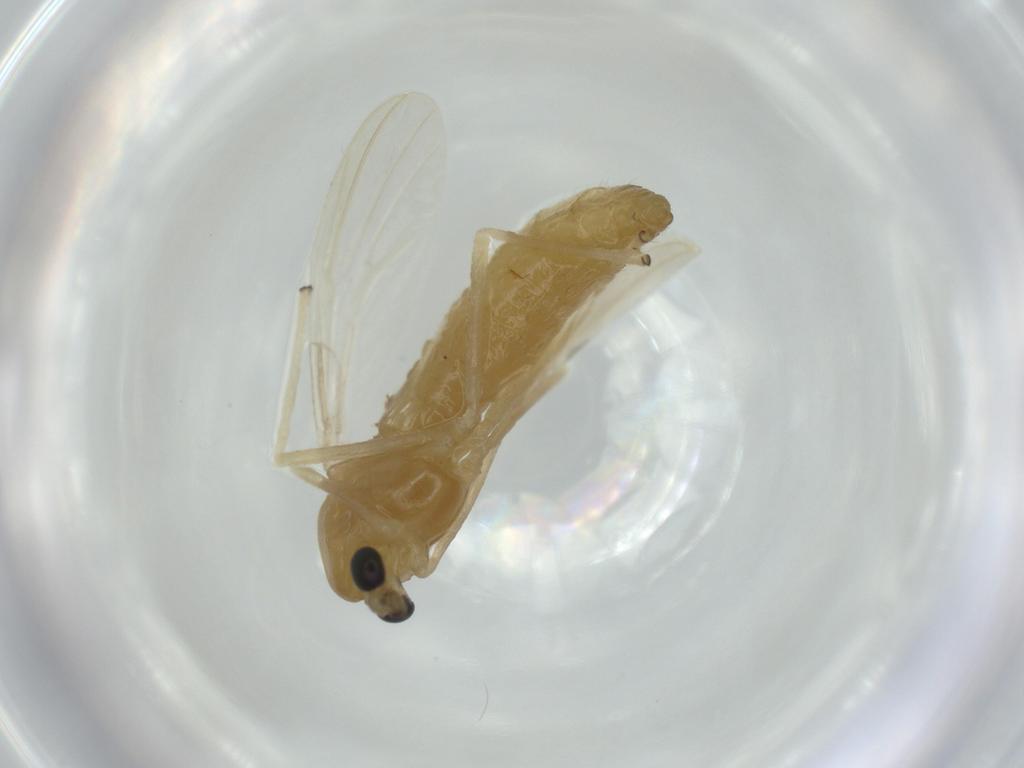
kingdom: Animalia
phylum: Arthropoda
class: Insecta
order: Diptera
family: Chironomidae
